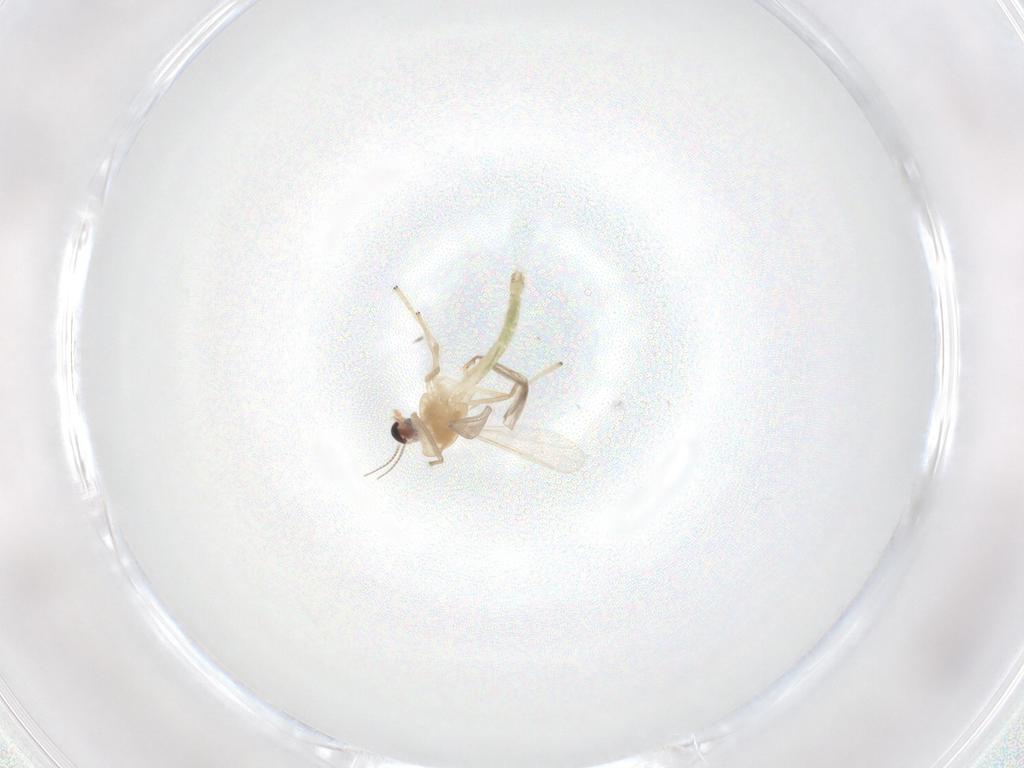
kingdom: Animalia
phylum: Arthropoda
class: Insecta
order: Diptera
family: Chironomidae
